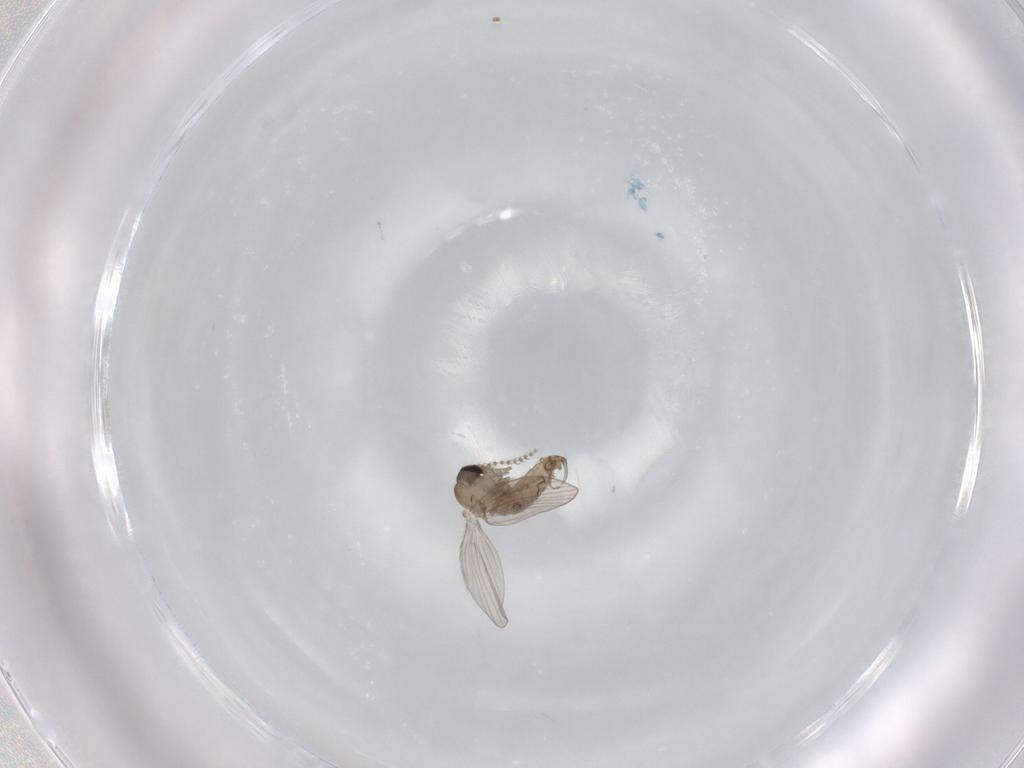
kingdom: Animalia
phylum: Arthropoda
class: Insecta
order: Diptera
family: Psychodidae
